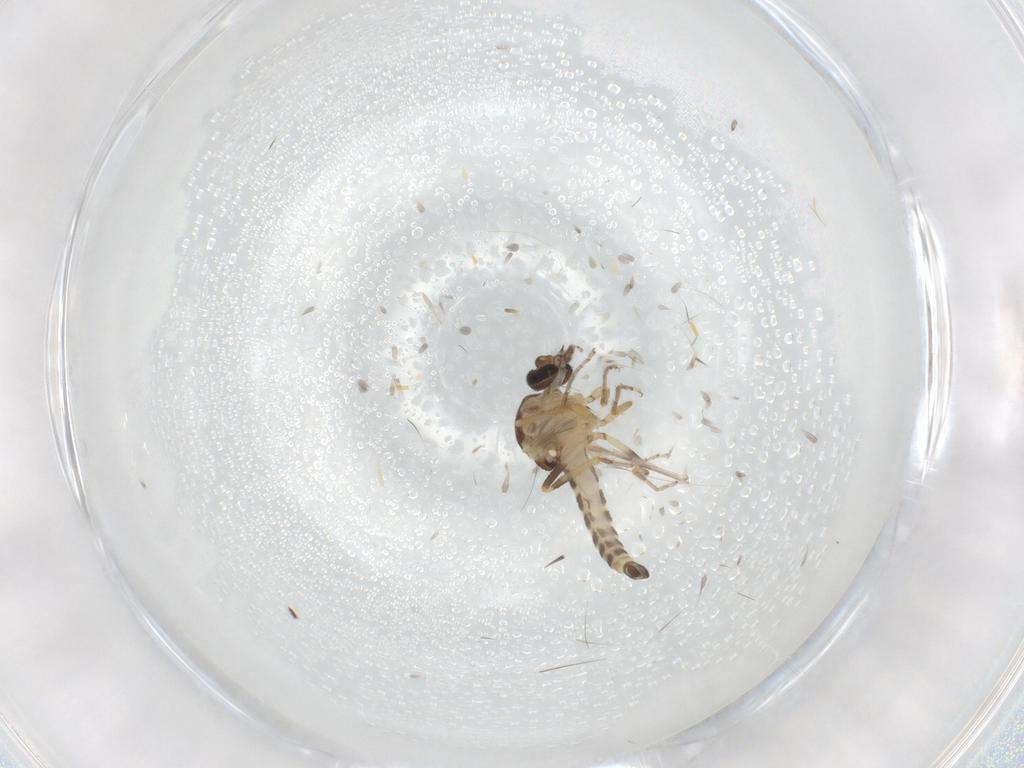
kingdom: Animalia
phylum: Arthropoda
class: Insecta
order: Diptera
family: Ceratopogonidae
